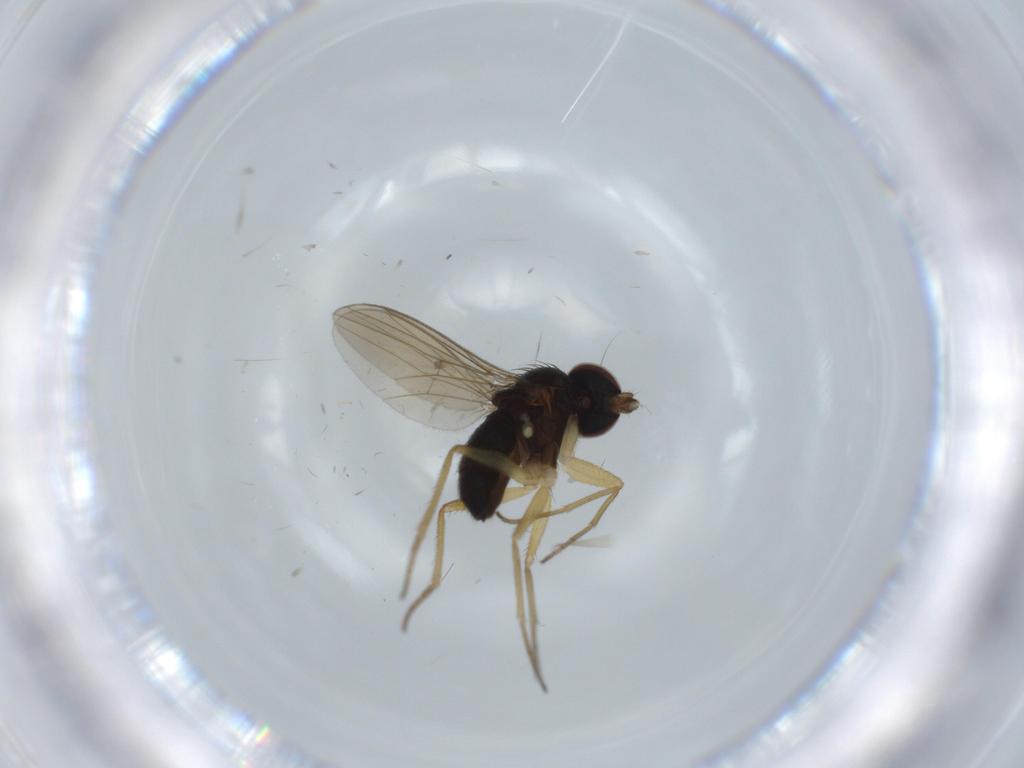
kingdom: Animalia
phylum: Arthropoda
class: Insecta
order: Diptera
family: Dolichopodidae
